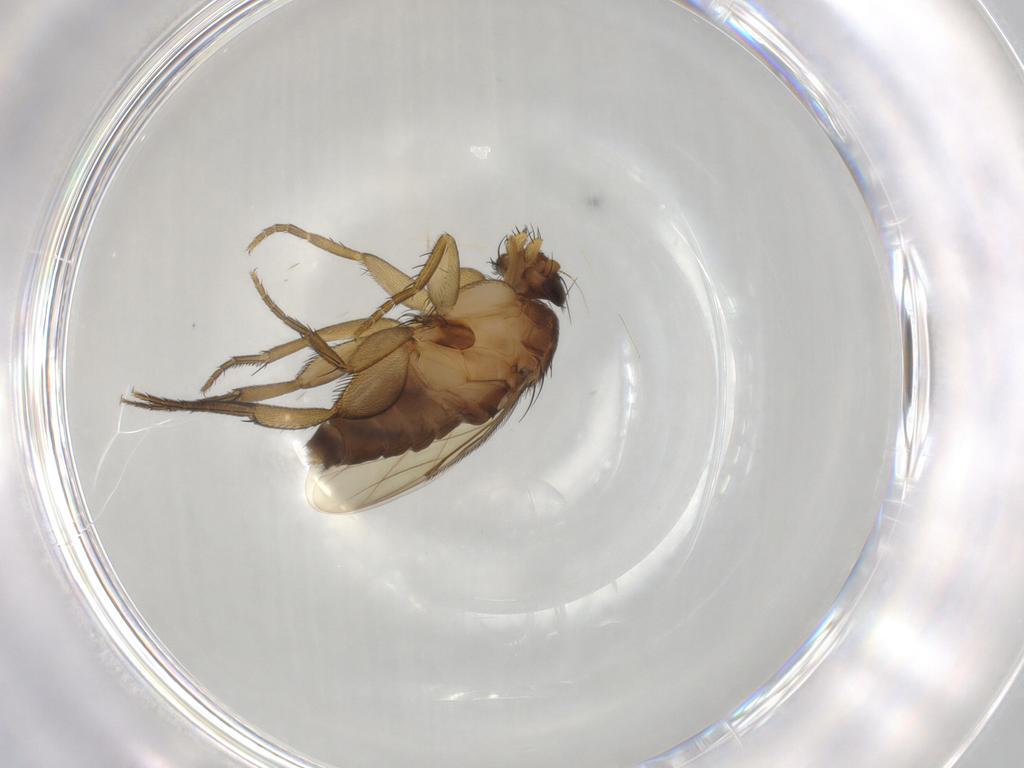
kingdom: Animalia
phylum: Arthropoda
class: Insecta
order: Diptera
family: Phoridae
